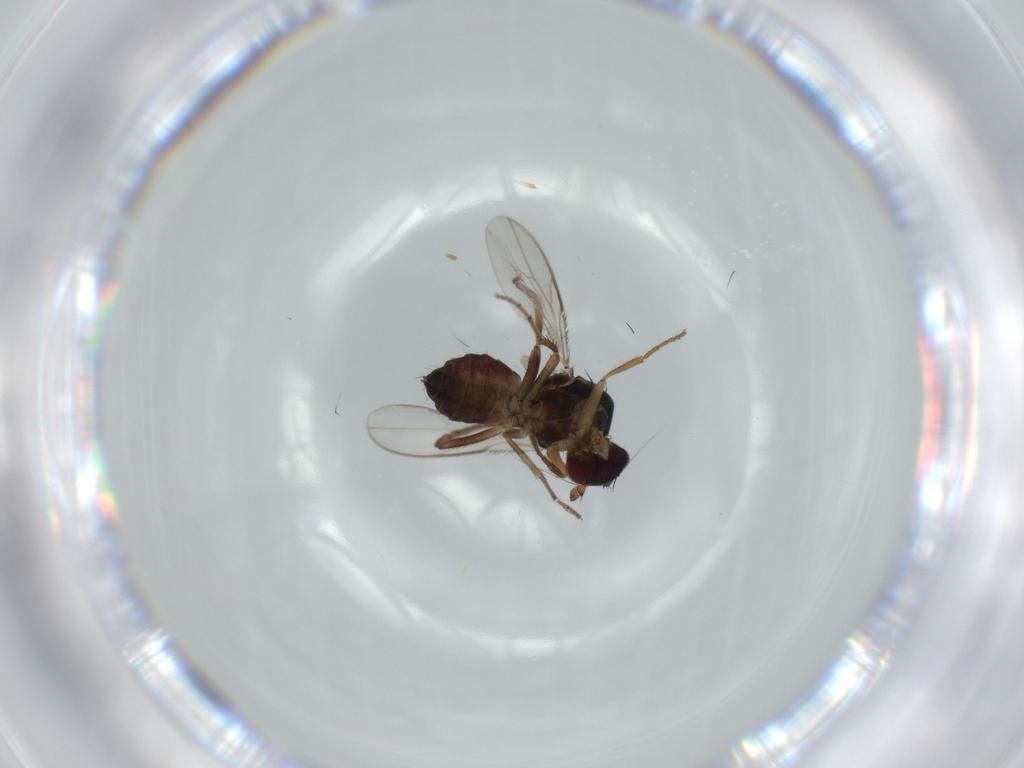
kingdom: Animalia
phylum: Arthropoda
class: Insecta
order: Diptera
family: Sphaeroceridae
